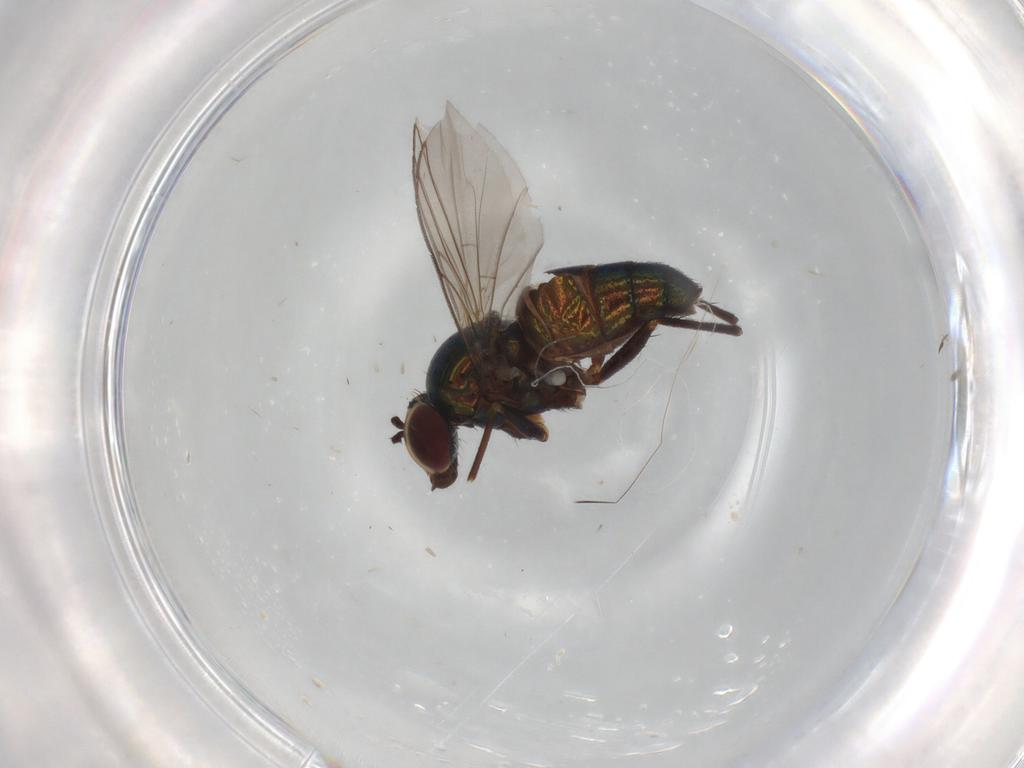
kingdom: Animalia
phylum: Arthropoda
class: Insecta
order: Diptera
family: Dolichopodidae
